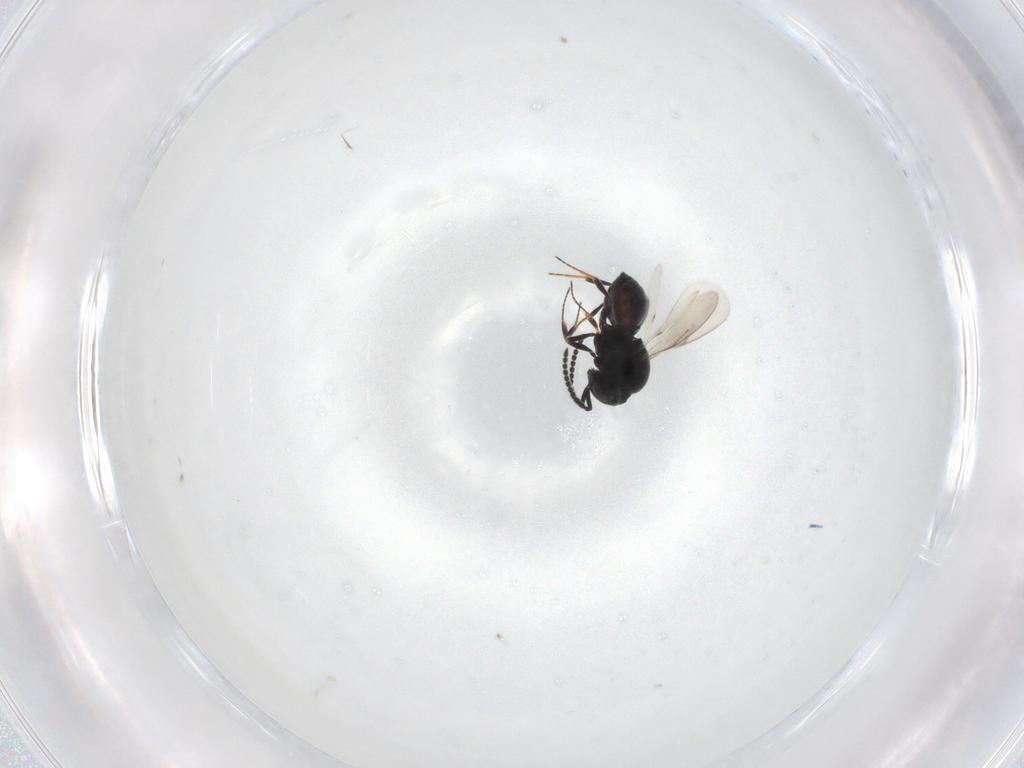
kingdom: Animalia
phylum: Arthropoda
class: Insecta
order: Hymenoptera
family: Scelionidae
